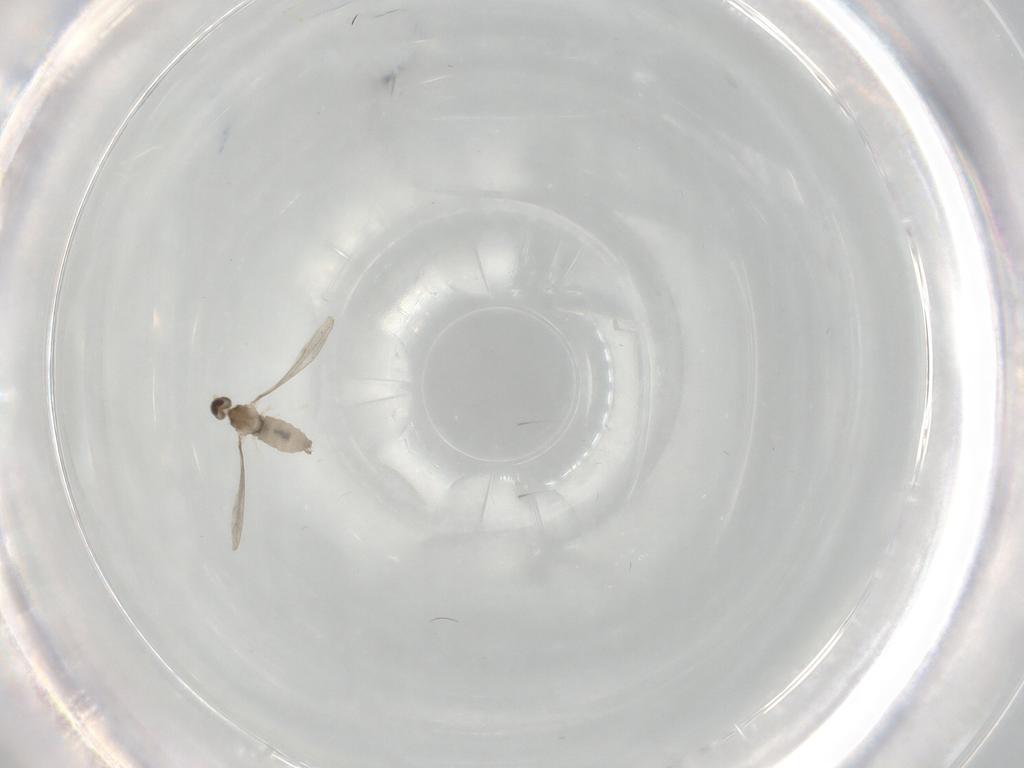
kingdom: Animalia
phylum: Arthropoda
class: Insecta
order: Diptera
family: Cecidomyiidae
